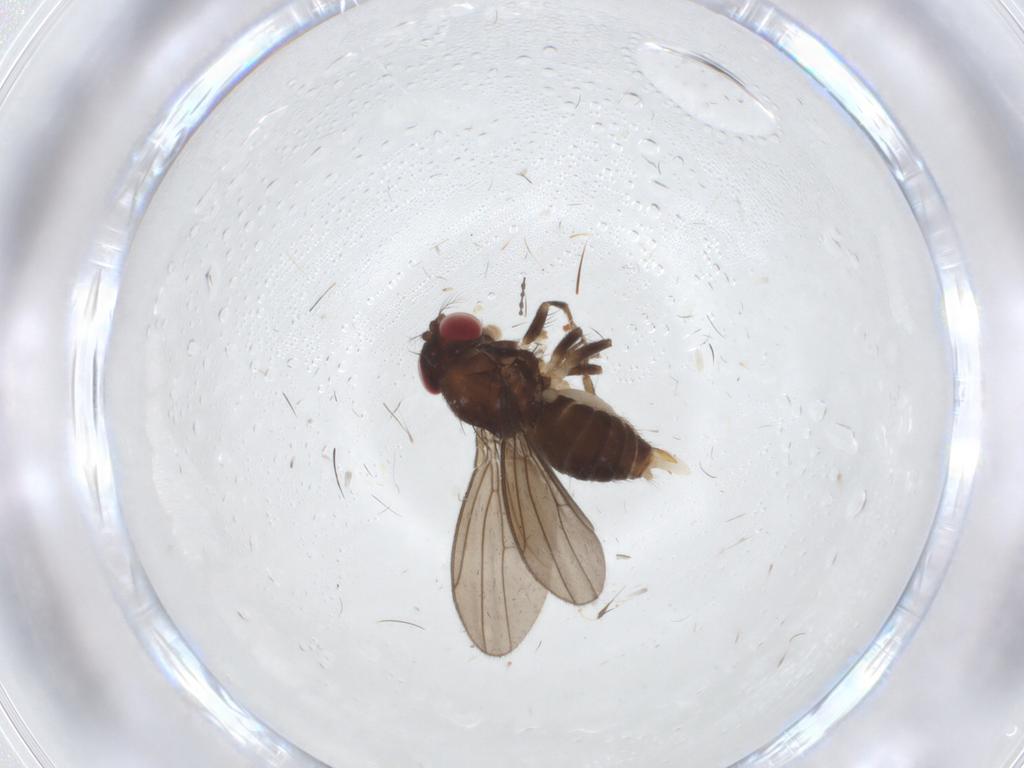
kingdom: Animalia
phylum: Arthropoda
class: Insecta
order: Diptera
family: Drosophilidae
